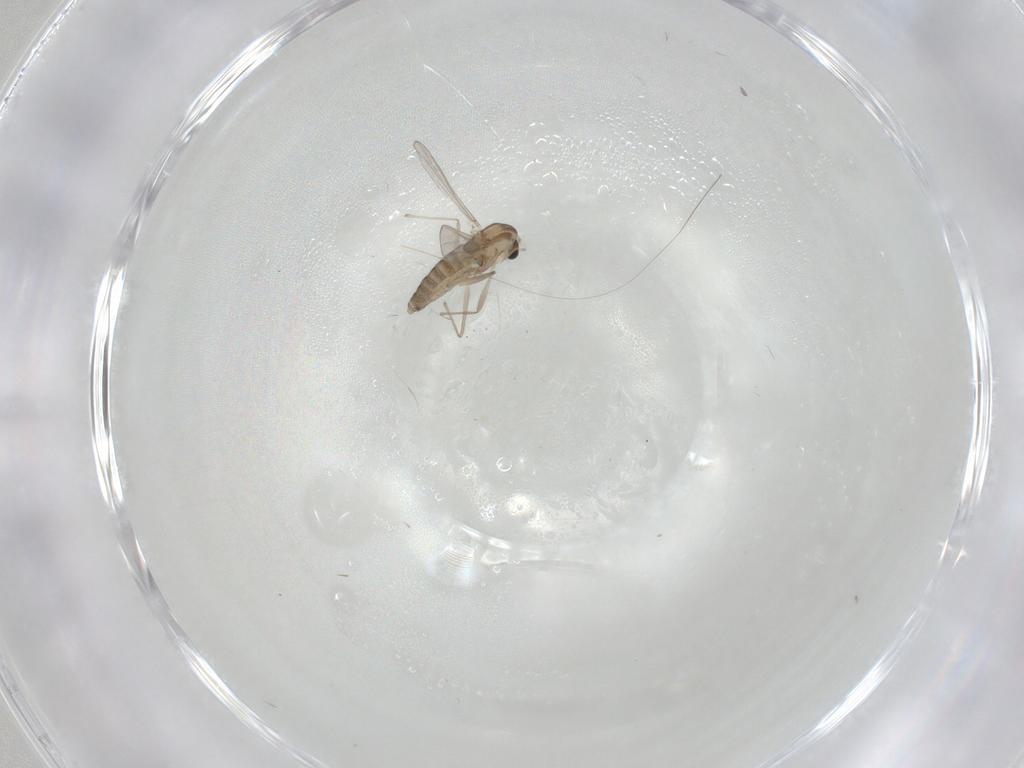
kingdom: Animalia
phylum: Arthropoda
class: Insecta
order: Diptera
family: Chironomidae
